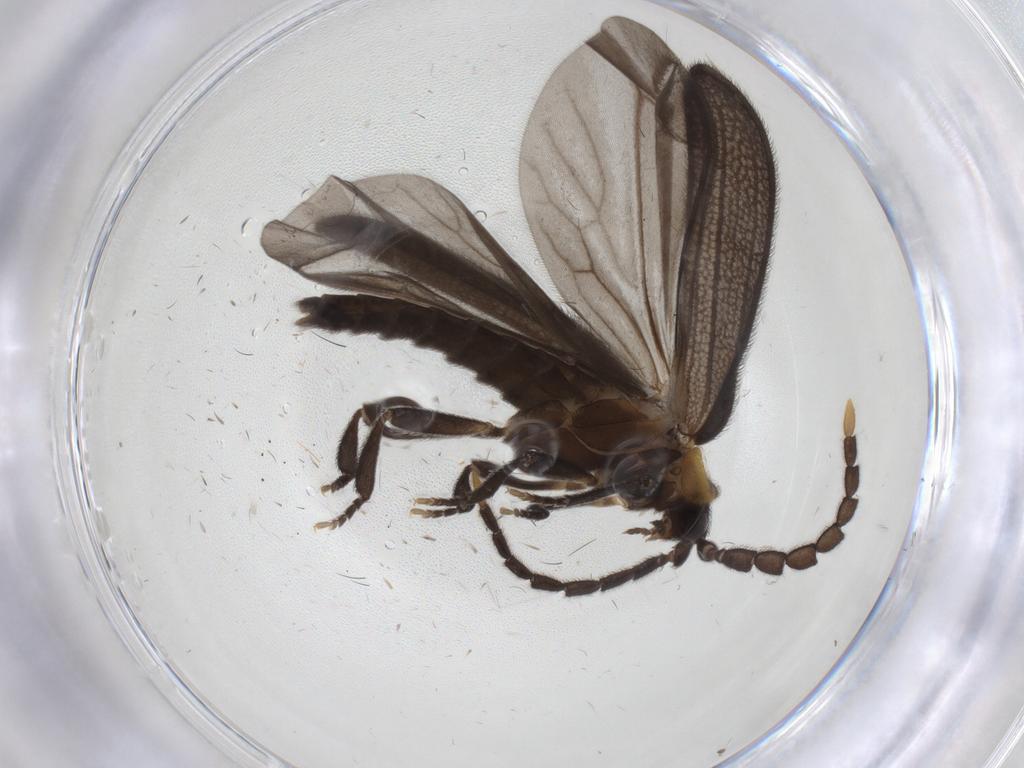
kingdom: Animalia
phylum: Arthropoda
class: Insecta
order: Coleoptera
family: Lycidae
